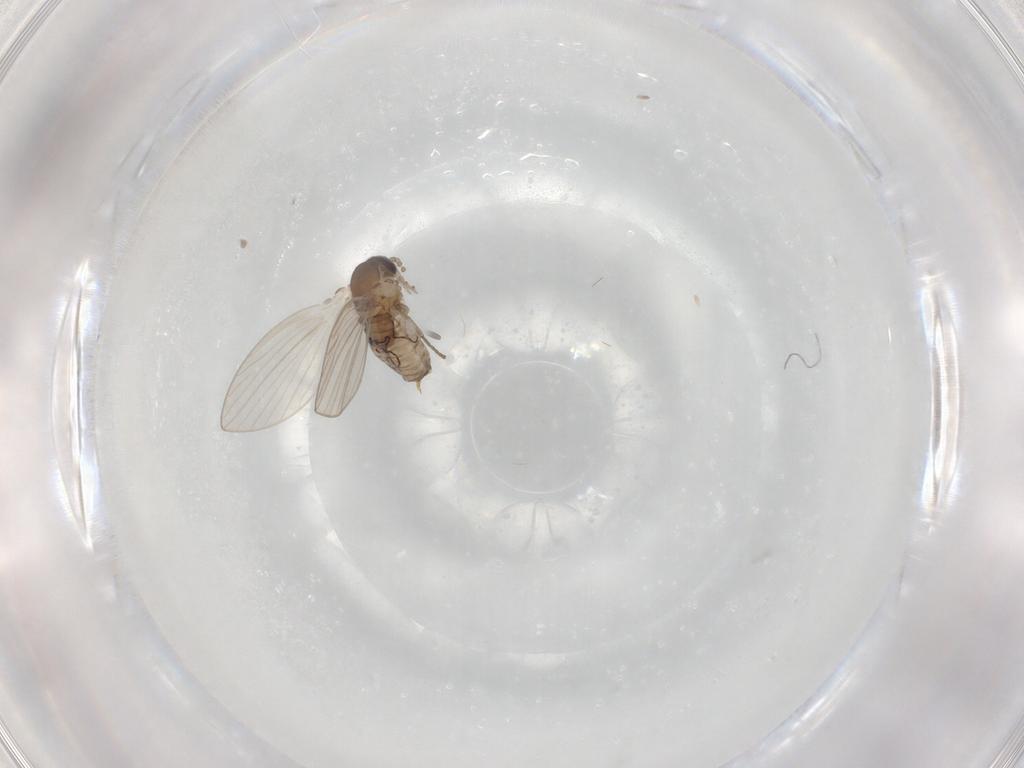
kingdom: Animalia
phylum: Arthropoda
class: Insecta
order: Diptera
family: Psychodidae
